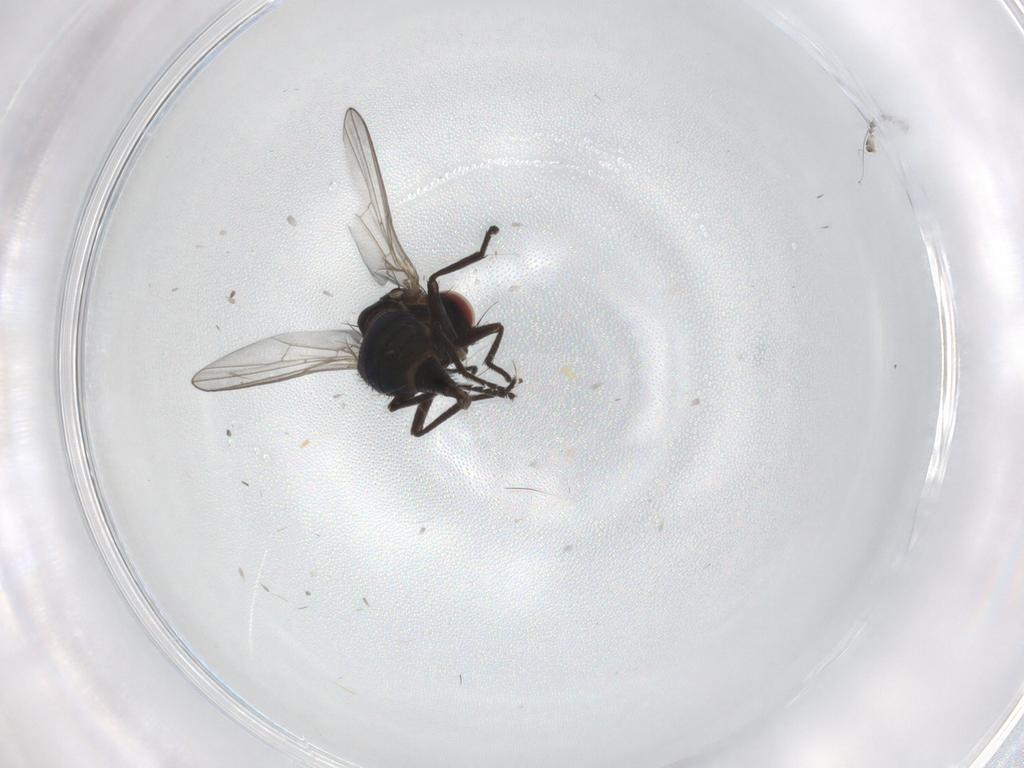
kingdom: Animalia
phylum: Arthropoda
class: Insecta
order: Diptera
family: Agromyzidae
